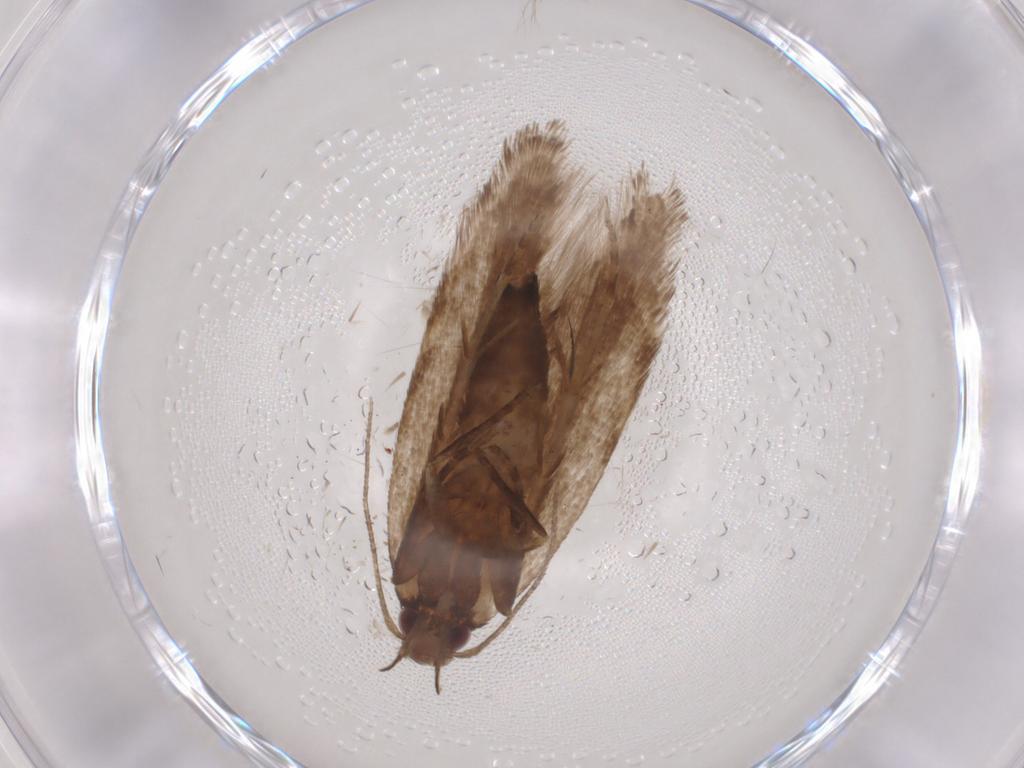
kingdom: Animalia
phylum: Arthropoda
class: Insecta
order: Lepidoptera
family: Gelechiidae
